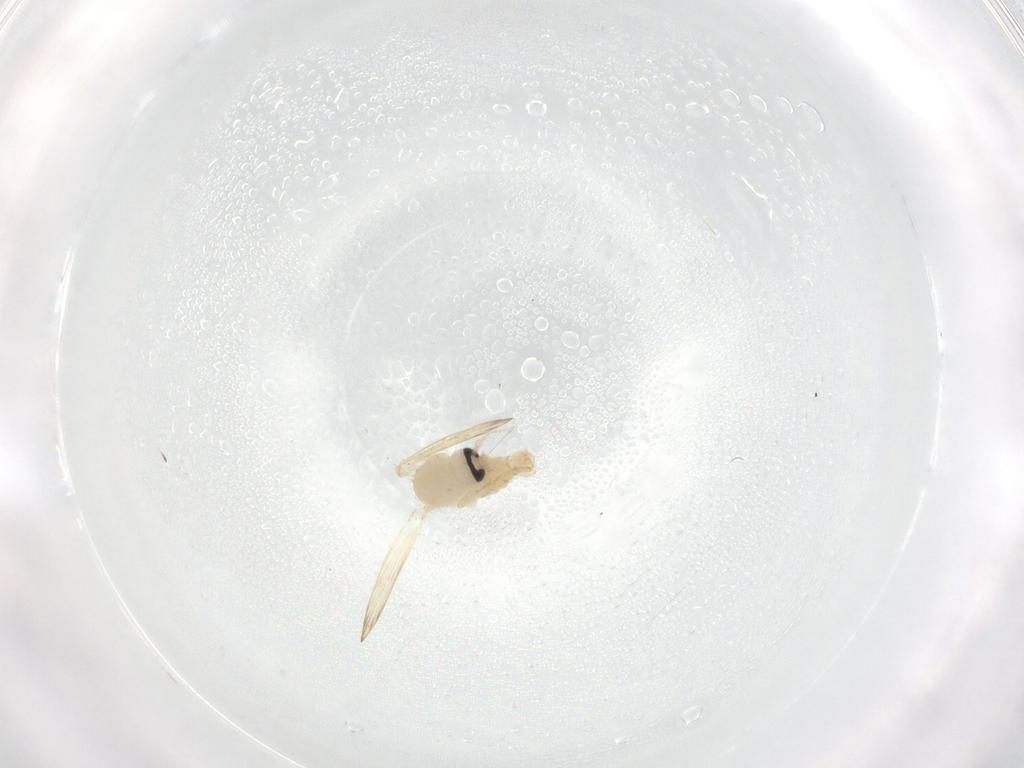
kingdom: Animalia
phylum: Arthropoda
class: Insecta
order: Diptera
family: Psychodidae
